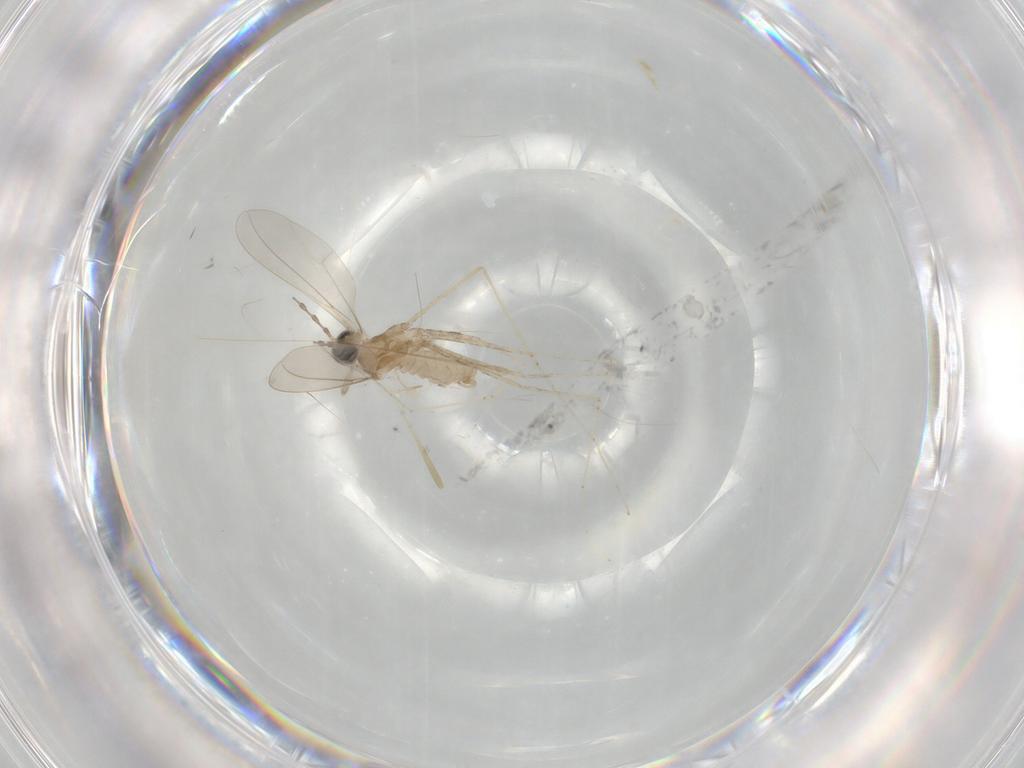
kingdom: Animalia
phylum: Arthropoda
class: Insecta
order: Diptera
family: Cecidomyiidae
